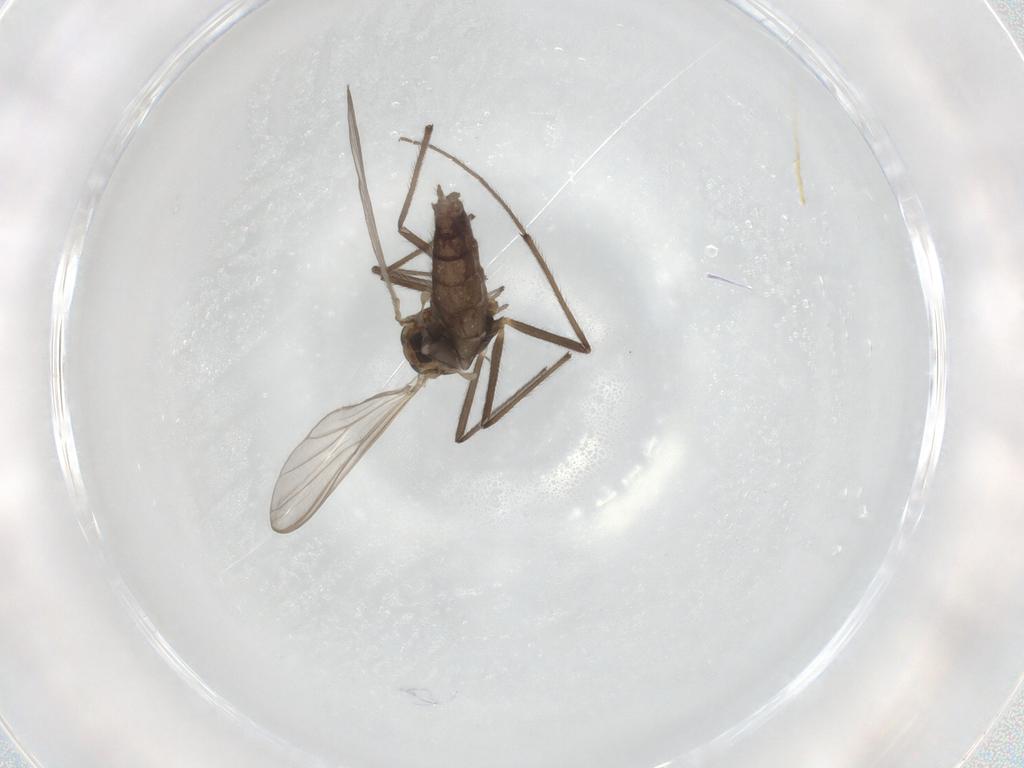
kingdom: Animalia
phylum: Arthropoda
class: Insecta
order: Diptera
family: Chironomidae
